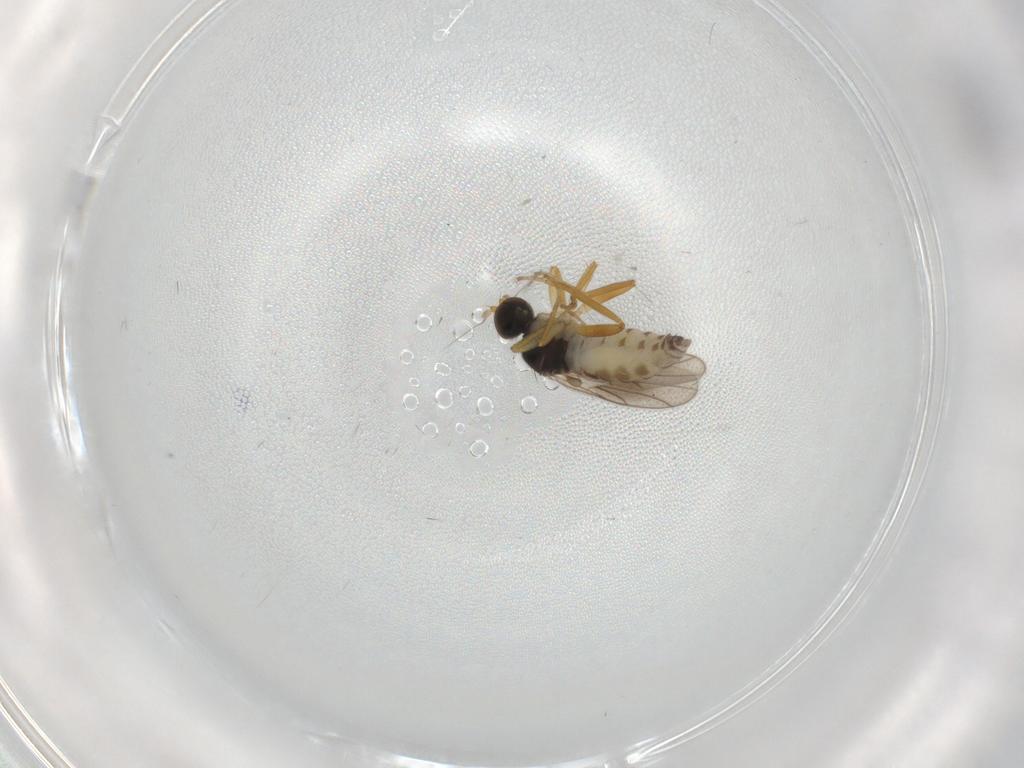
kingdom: Animalia
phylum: Arthropoda
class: Insecta
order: Diptera
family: Hybotidae
